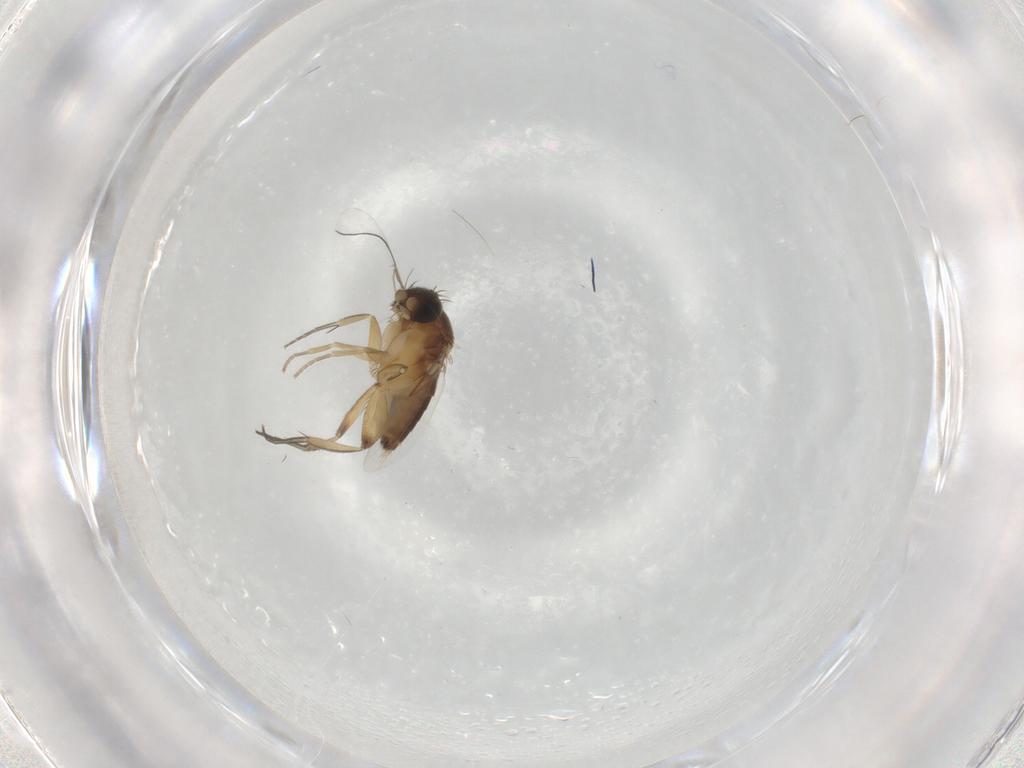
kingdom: Animalia
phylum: Arthropoda
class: Insecta
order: Diptera
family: Phoridae
